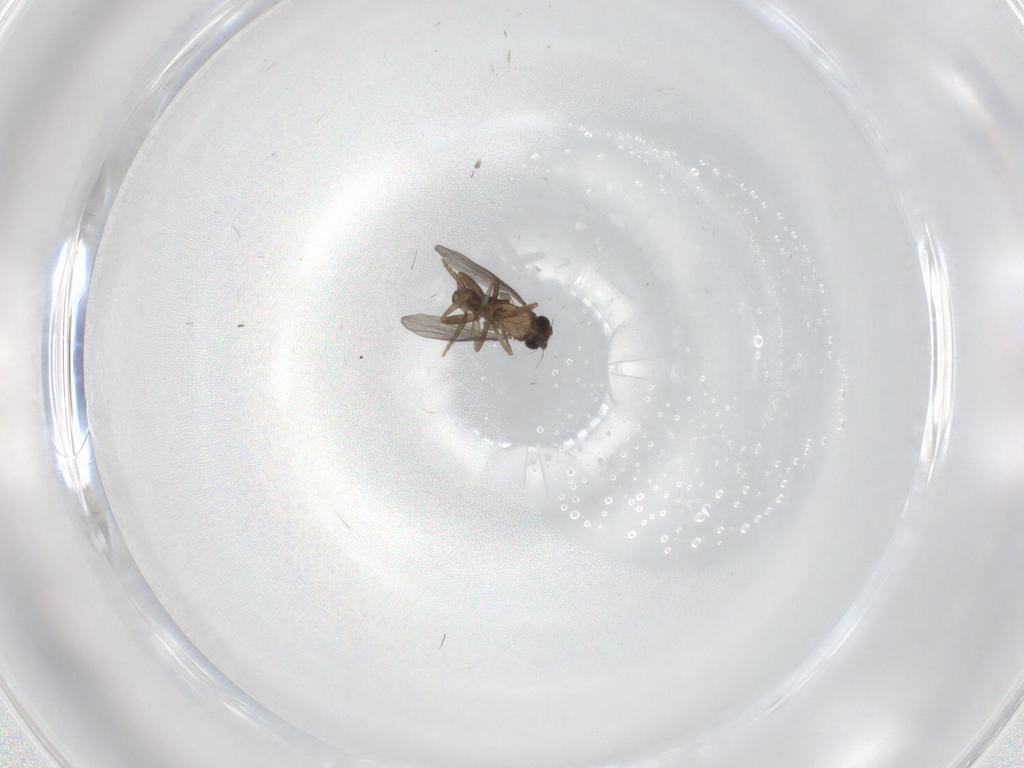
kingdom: Animalia
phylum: Arthropoda
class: Insecta
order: Diptera
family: Phoridae
